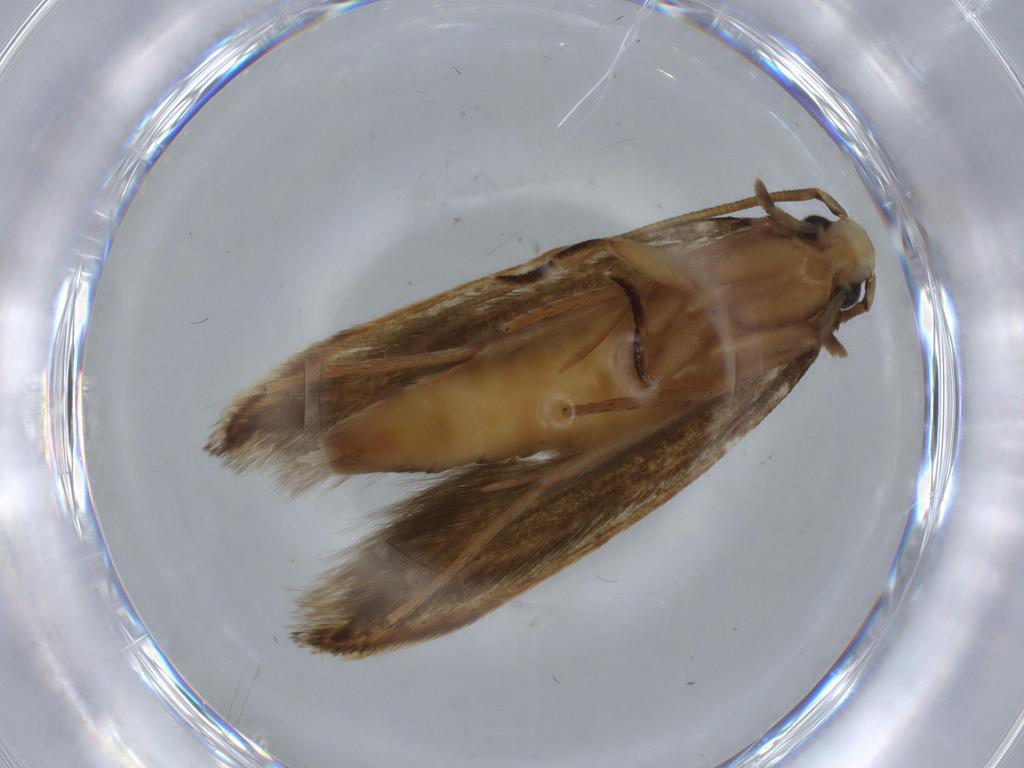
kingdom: Animalia
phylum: Arthropoda
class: Insecta
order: Lepidoptera
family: Tineidae
